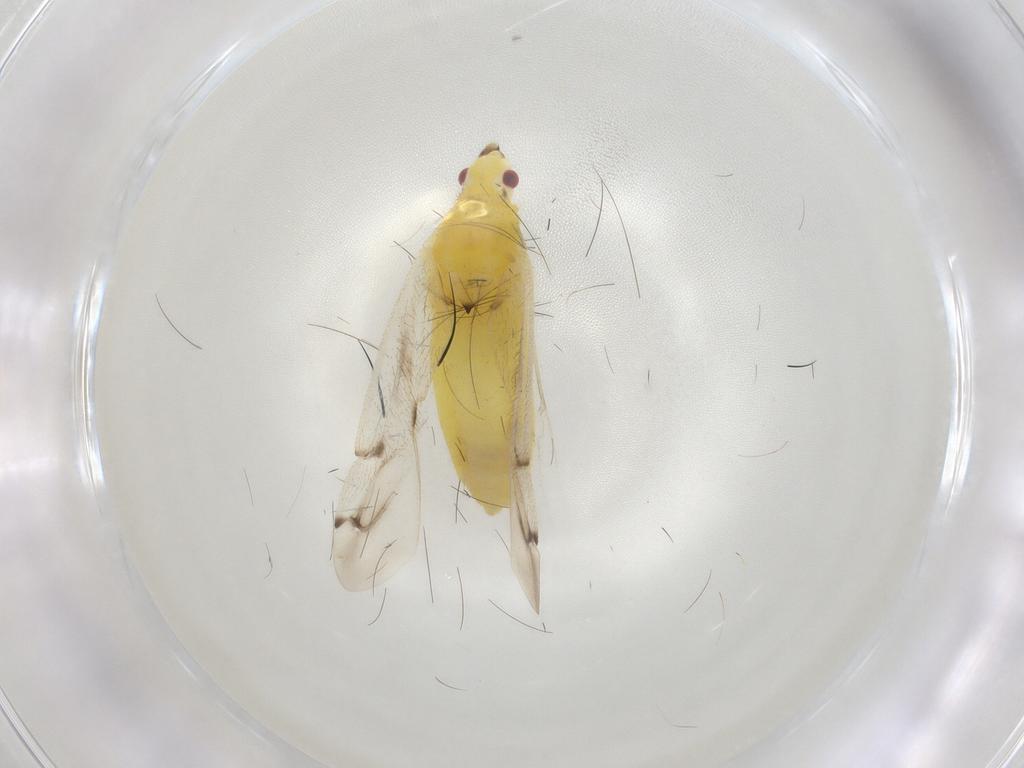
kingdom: Animalia
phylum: Arthropoda
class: Insecta
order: Hemiptera
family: Miridae
